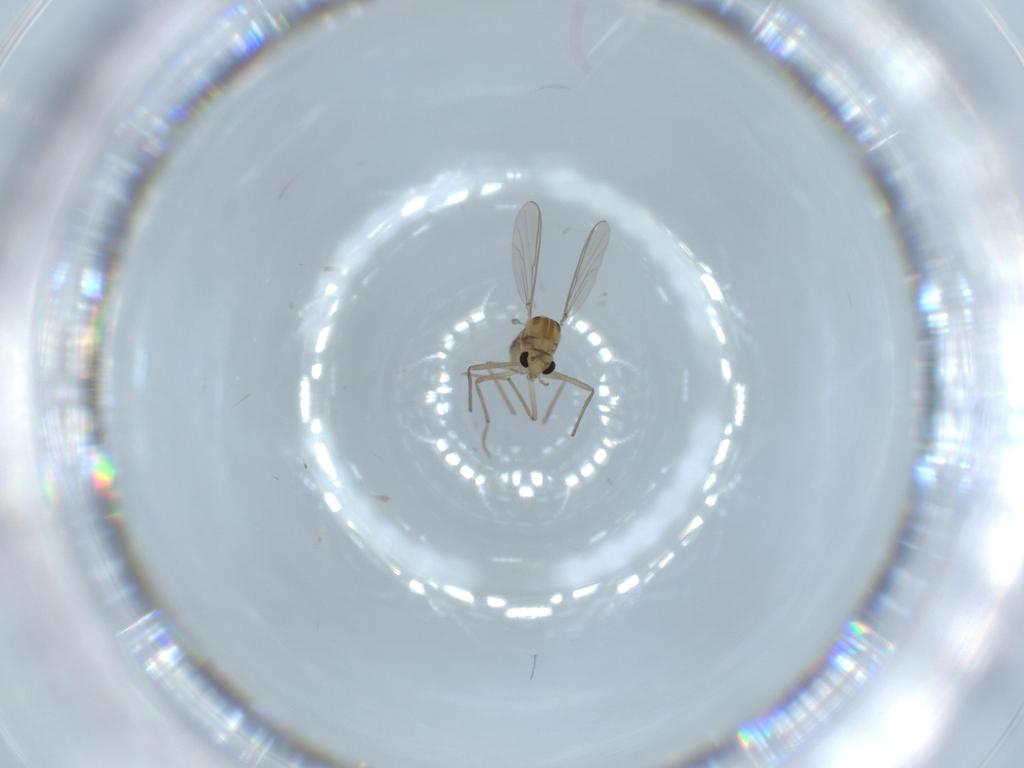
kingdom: Animalia
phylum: Arthropoda
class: Insecta
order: Diptera
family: Chironomidae
